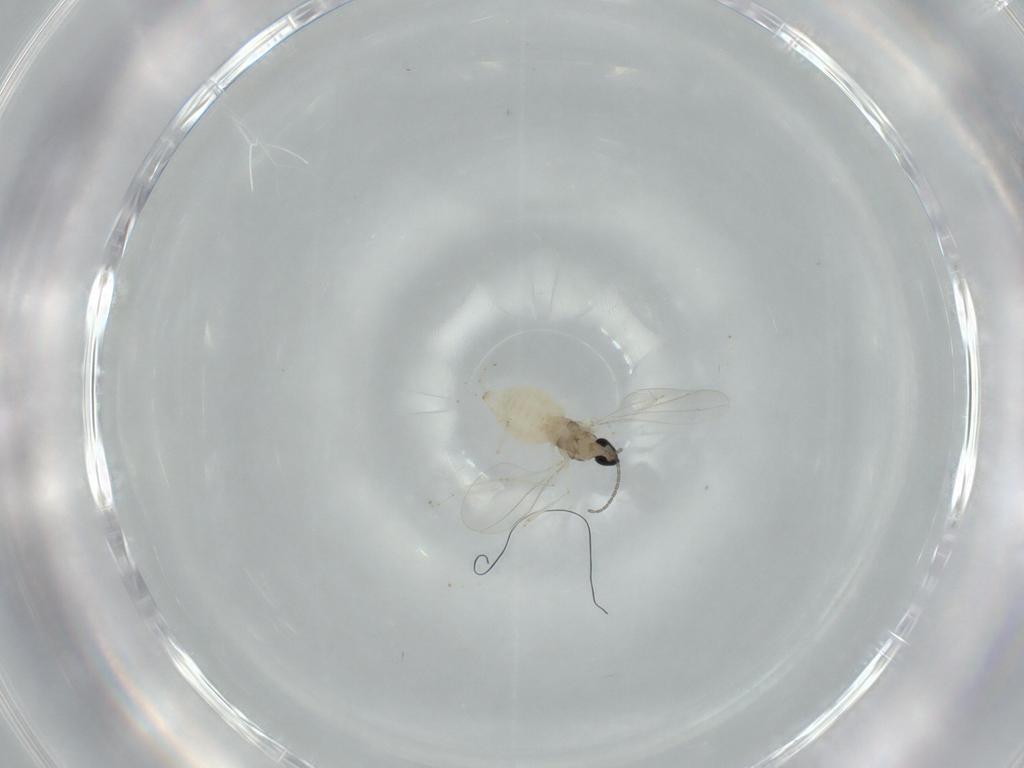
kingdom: Animalia
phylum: Arthropoda
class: Insecta
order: Diptera
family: Cecidomyiidae
